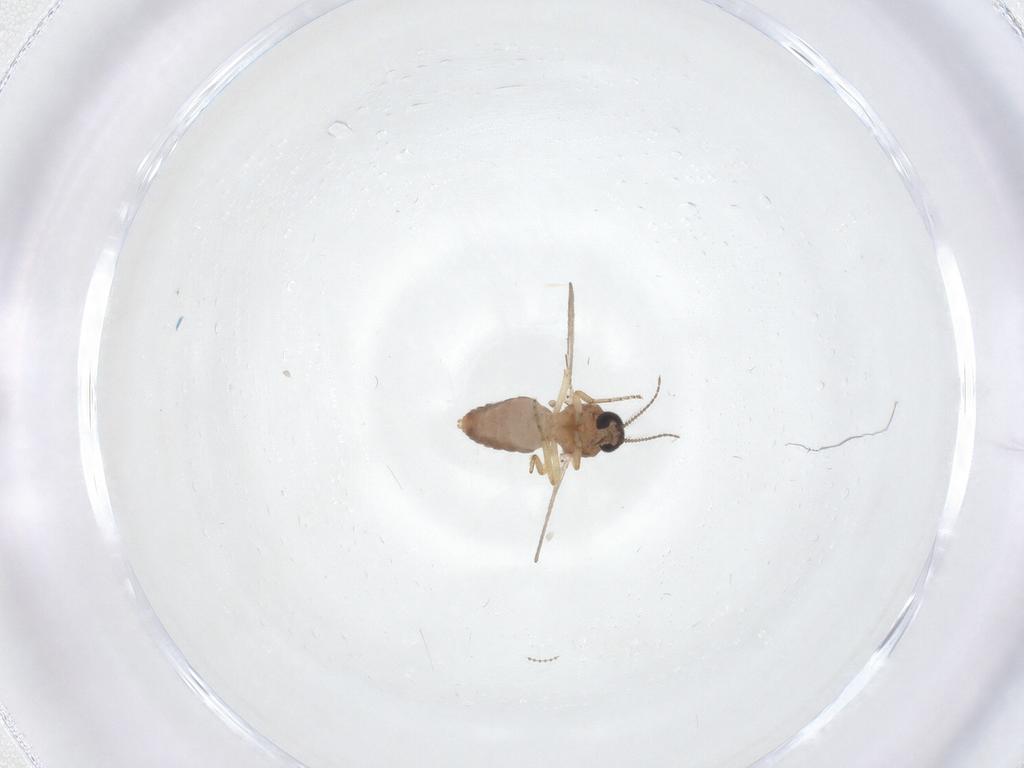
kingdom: Animalia
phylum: Arthropoda
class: Insecta
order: Diptera
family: Ceratopogonidae
